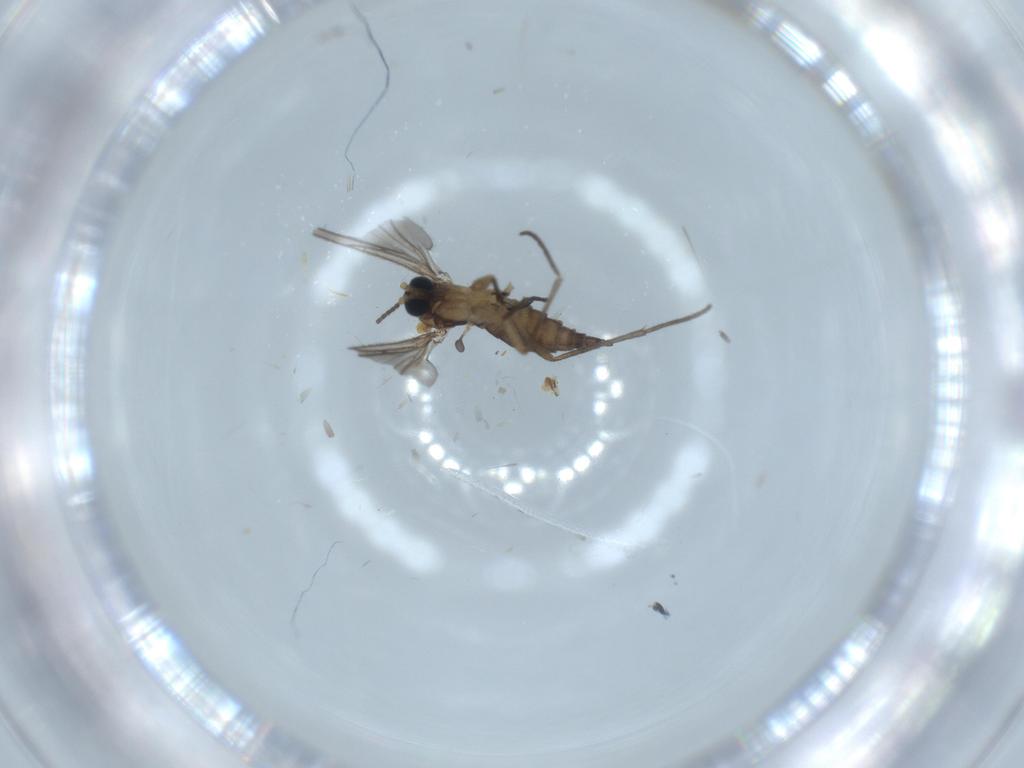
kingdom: Animalia
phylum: Arthropoda
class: Insecta
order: Diptera
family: Sciaridae
